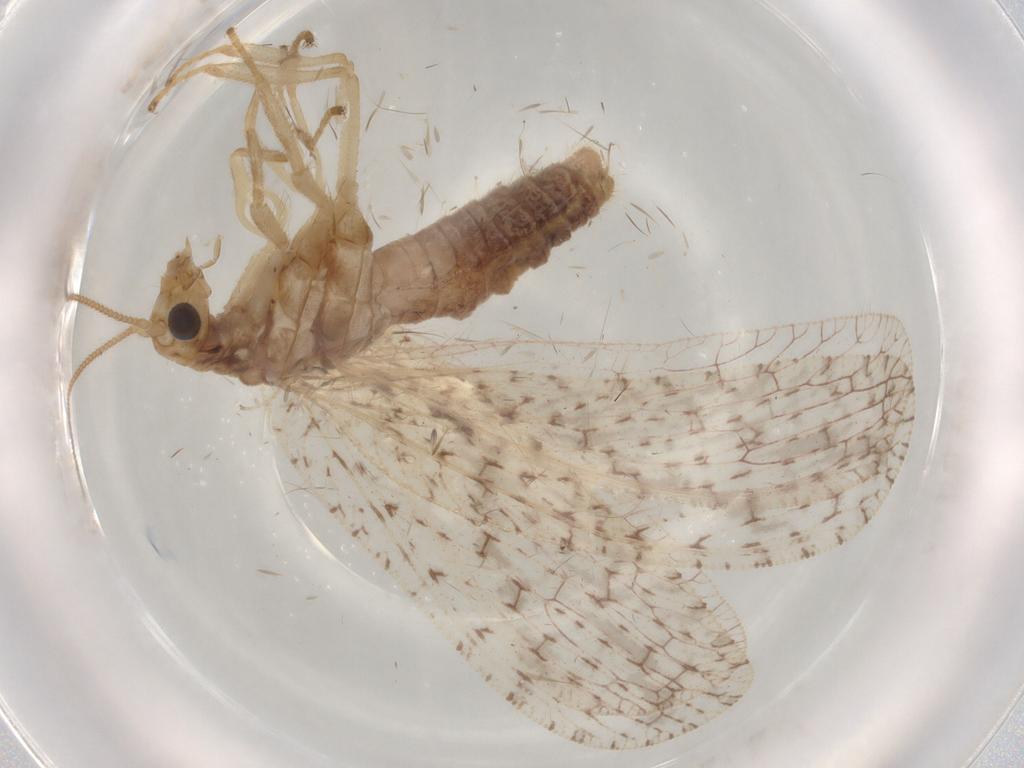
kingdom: Animalia
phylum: Arthropoda
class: Insecta
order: Neuroptera
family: Hemerobiidae
